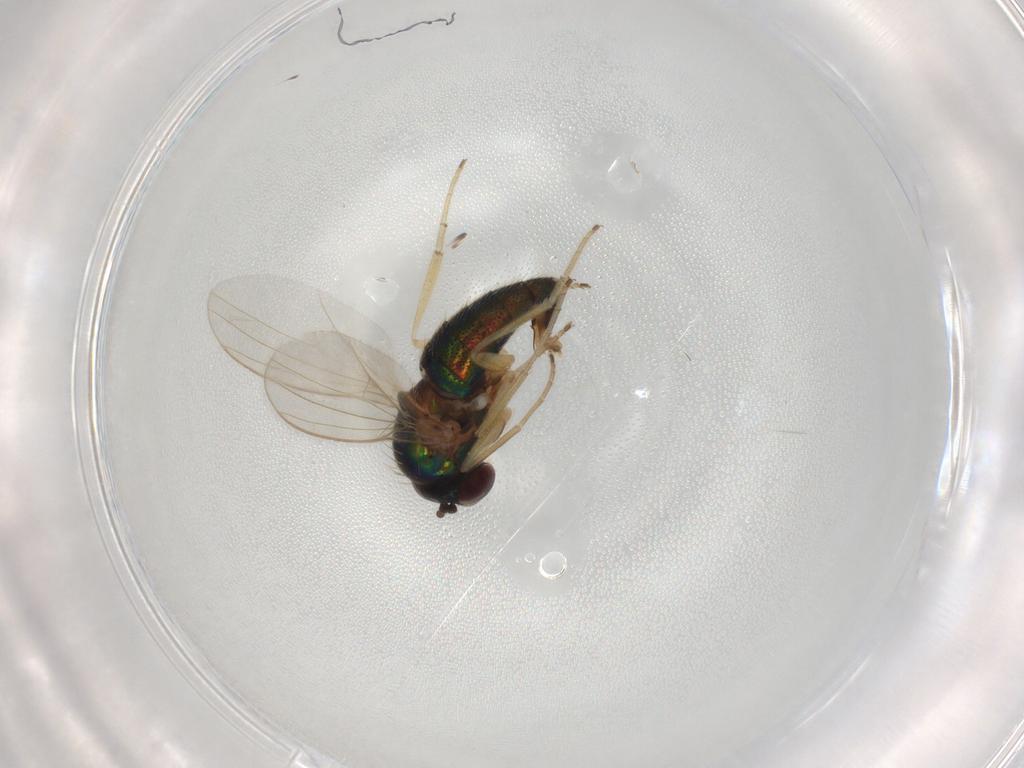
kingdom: Animalia
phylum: Arthropoda
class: Insecta
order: Diptera
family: Dolichopodidae
